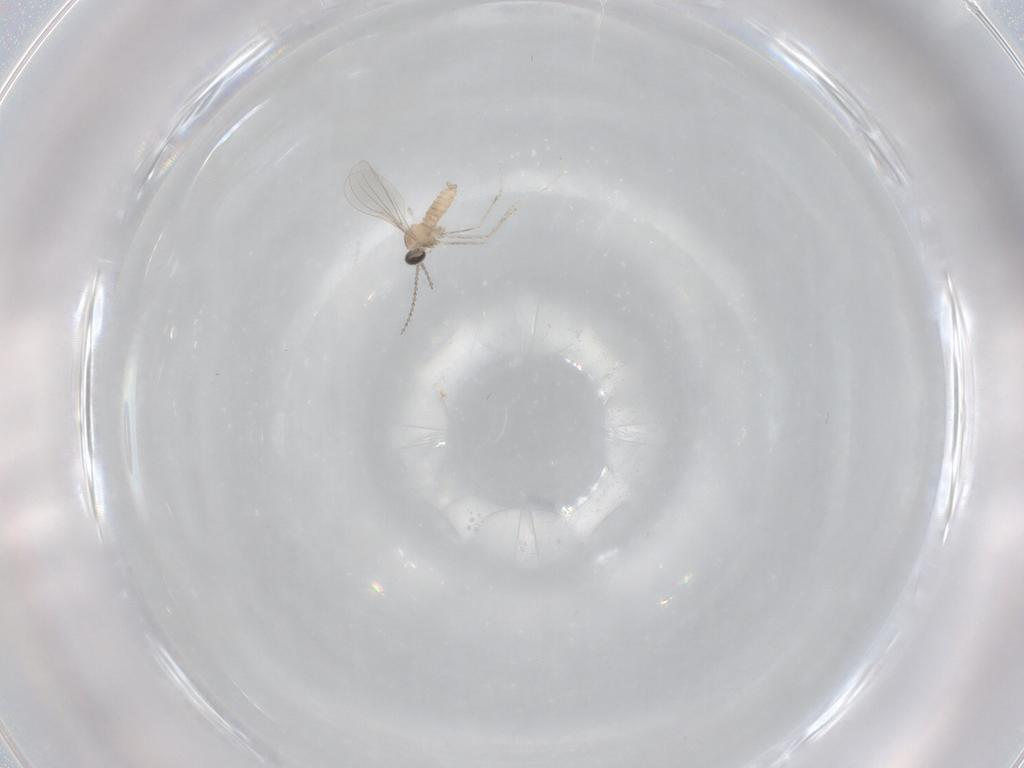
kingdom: Animalia
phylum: Arthropoda
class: Insecta
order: Diptera
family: Cecidomyiidae
